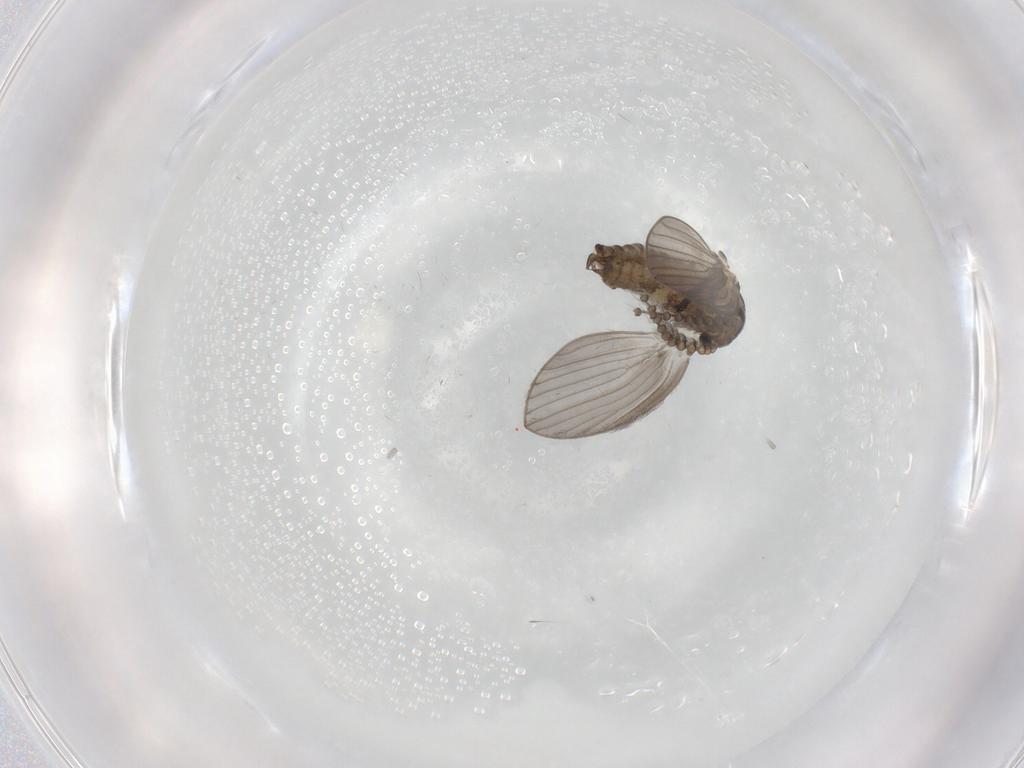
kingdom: Animalia
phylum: Arthropoda
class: Insecta
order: Diptera
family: Psychodidae
